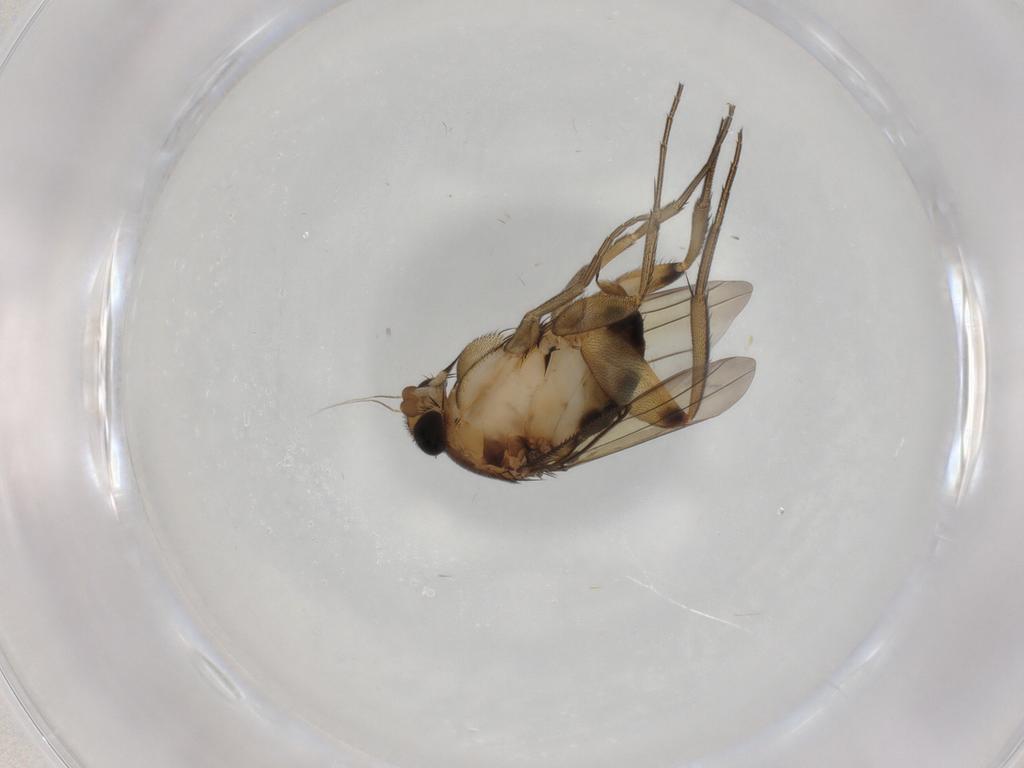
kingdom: Animalia
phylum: Arthropoda
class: Insecta
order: Diptera
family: Phoridae
